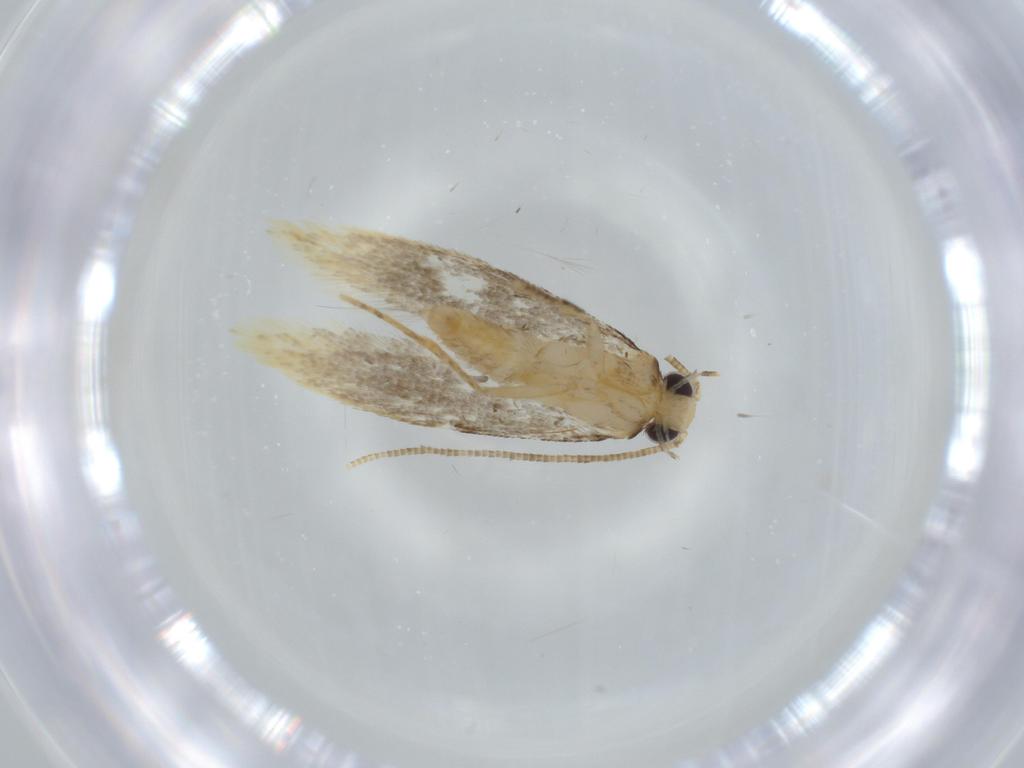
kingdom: Animalia
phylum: Arthropoda
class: Insecta
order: Lepidoptera
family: Tineidae
